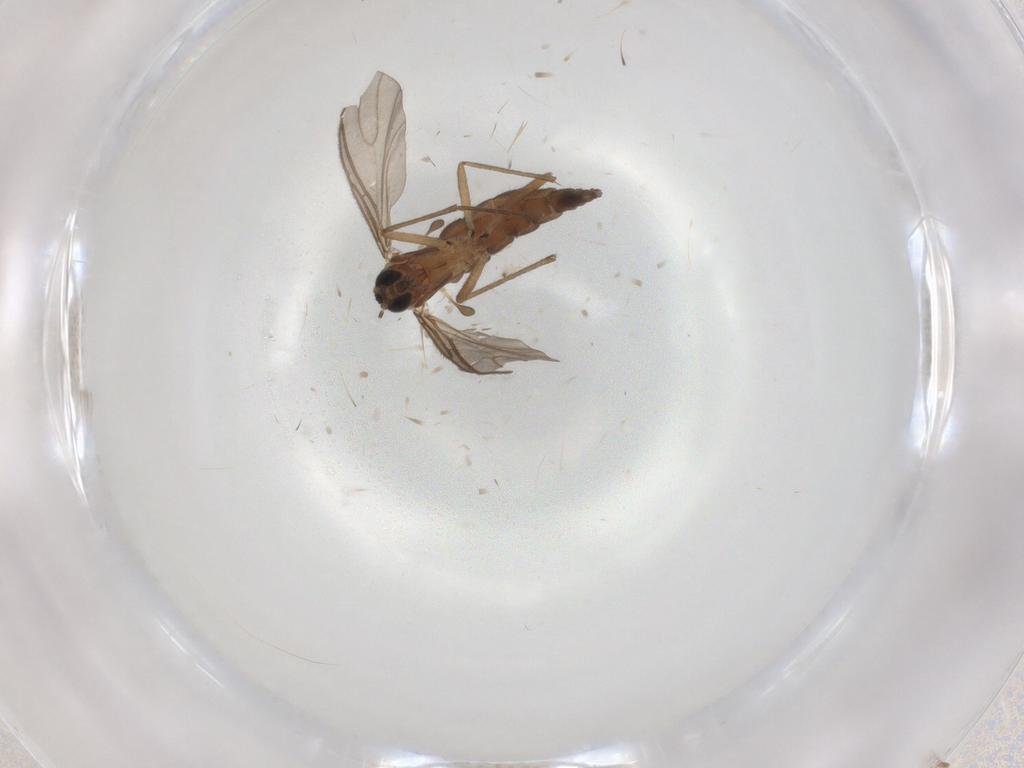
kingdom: Animalia
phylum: Arthropoda
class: Insecta
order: Diptera
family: Sciaridae
